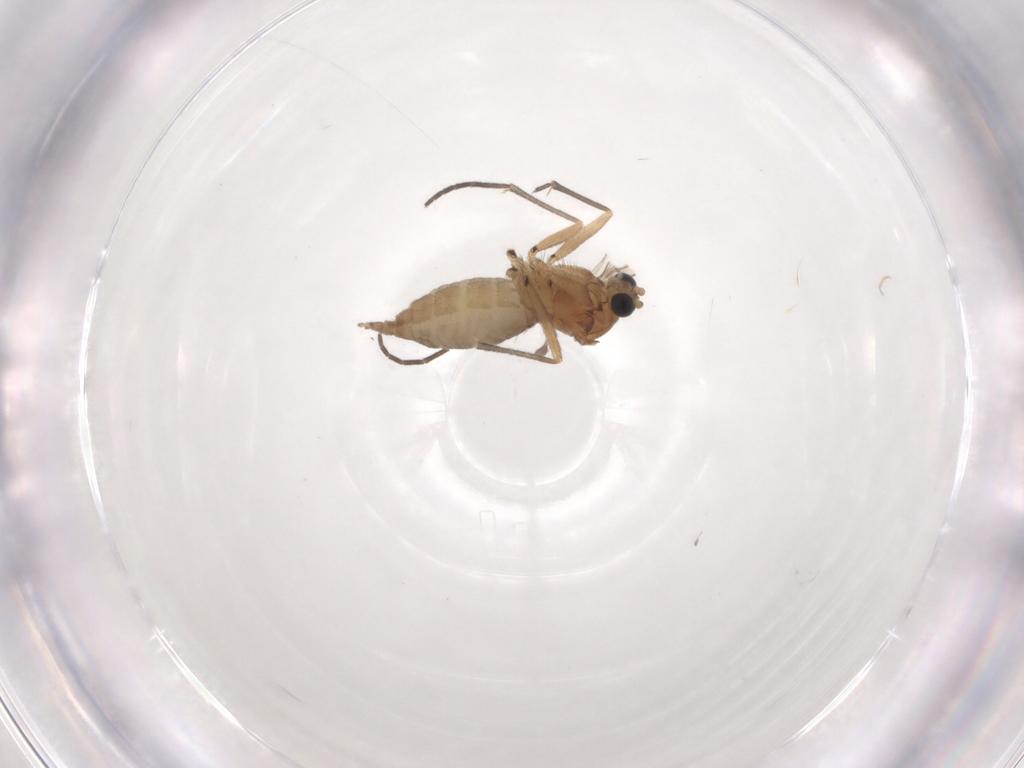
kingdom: Animalia
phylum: Arthropoda
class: Insecta
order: Diptera
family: Sciaridae
